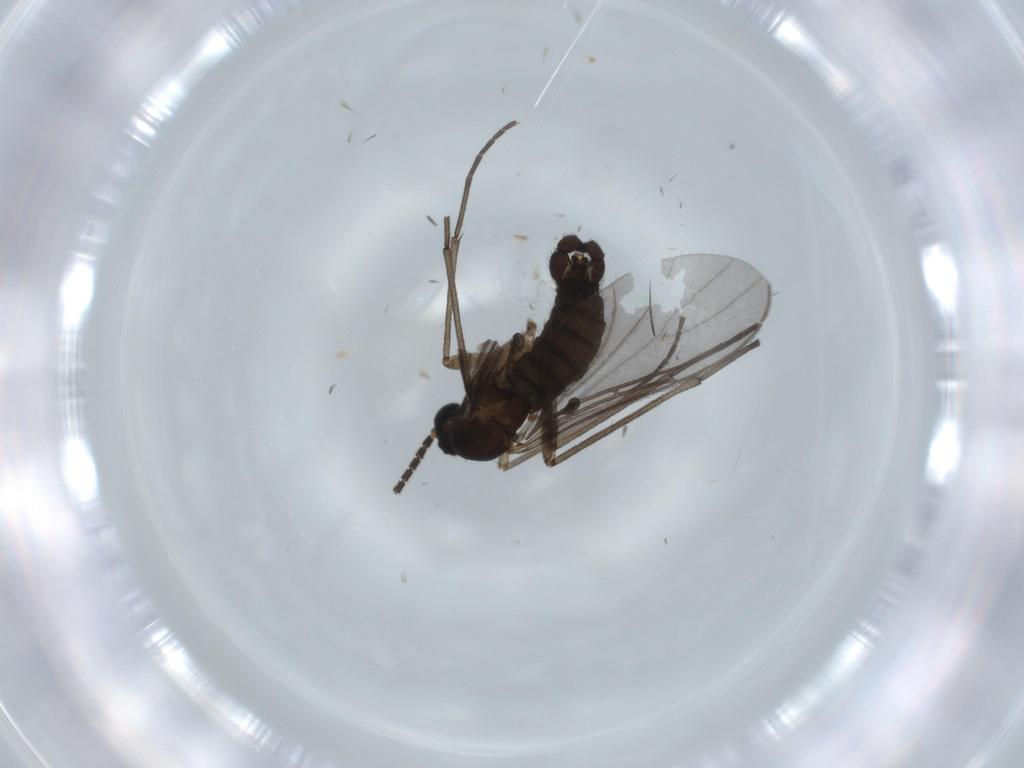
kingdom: Animalia
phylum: Arthropoda
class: Insecta
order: Diptera
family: Sciaridae
